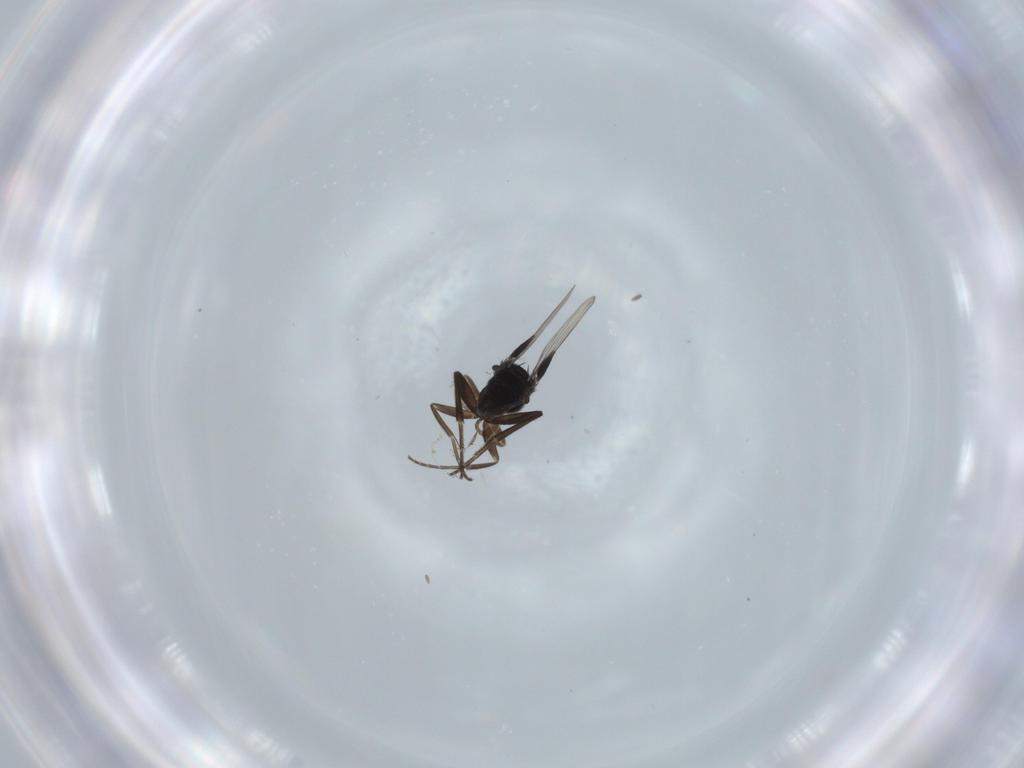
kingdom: Animalia
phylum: Arthropoda
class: Insecta
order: Diptera
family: Phoridae
